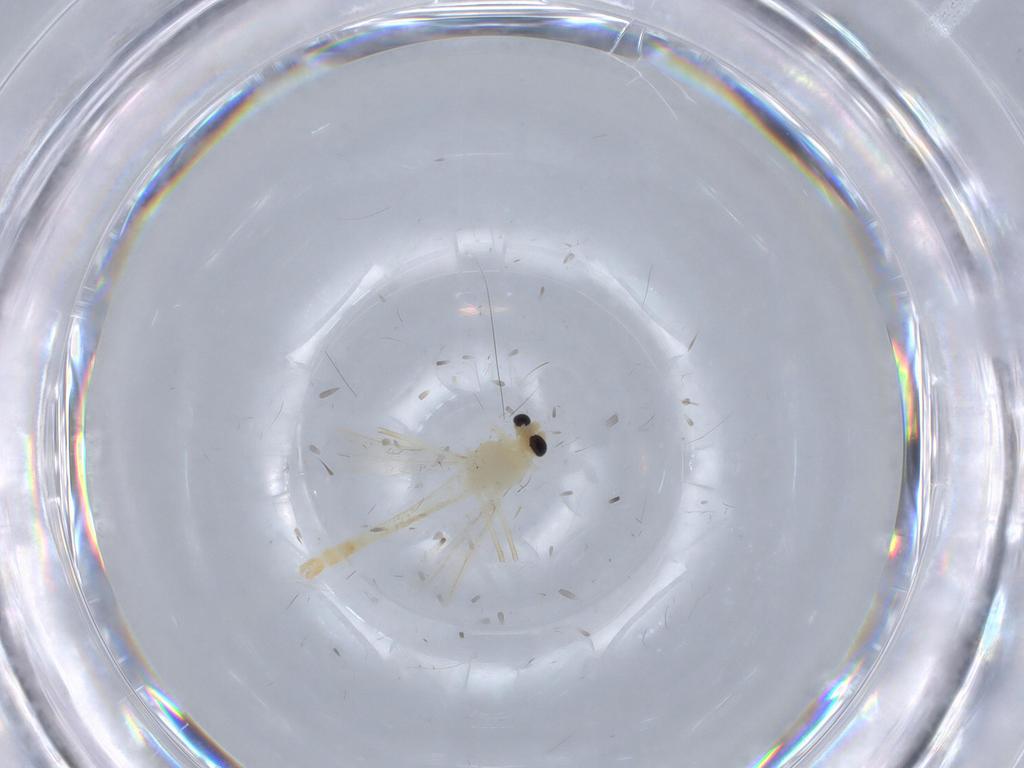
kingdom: Animalia
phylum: Arthropoda
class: Insecta
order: Diptera
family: Chironomidae
